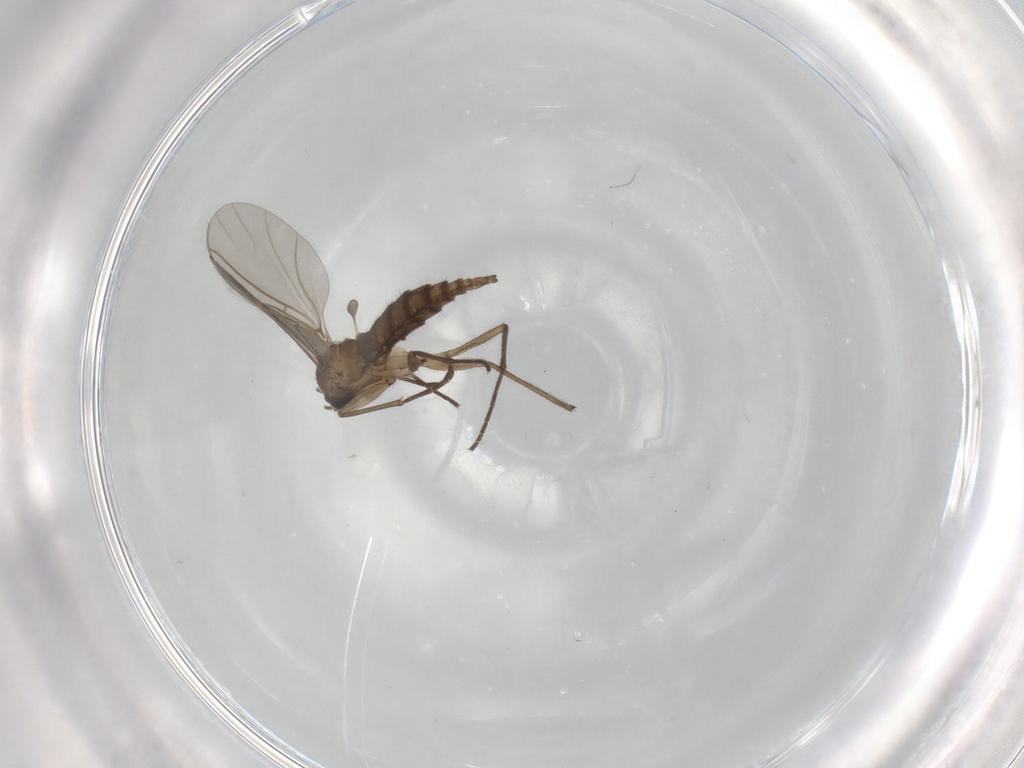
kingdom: Animalia
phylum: Arthropoda
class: Insecta
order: Diptera
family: Sciaridae
